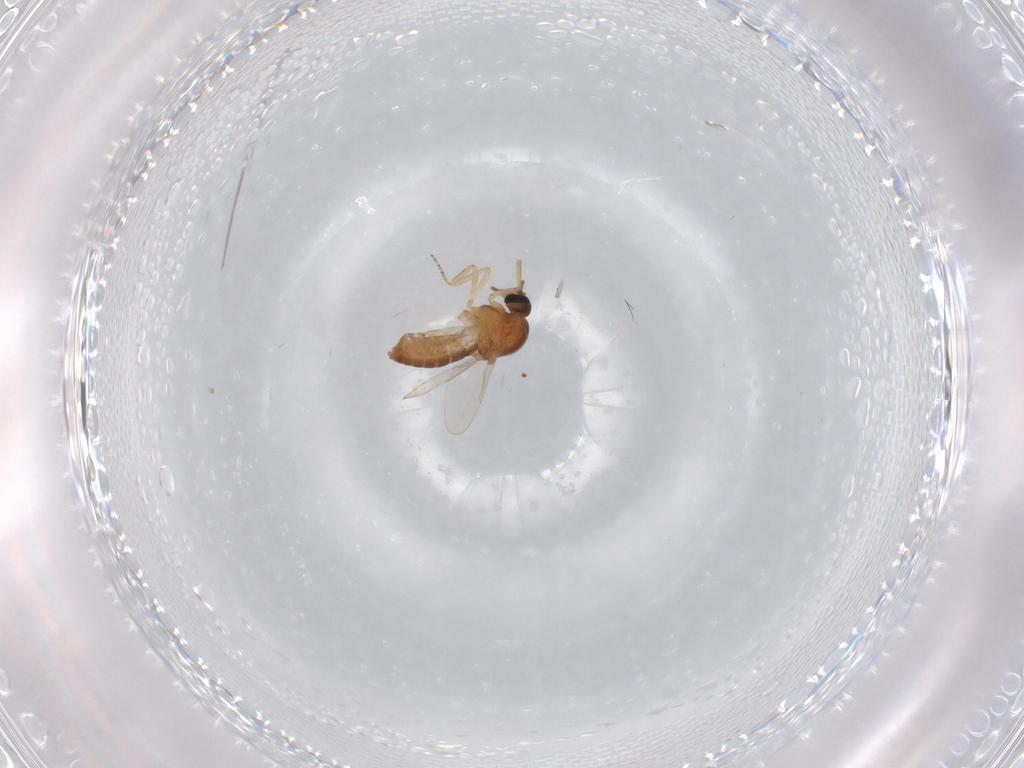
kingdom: Animalia
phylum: Arthropoda
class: Insecta
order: Diptera
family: Ceratopogonidae
